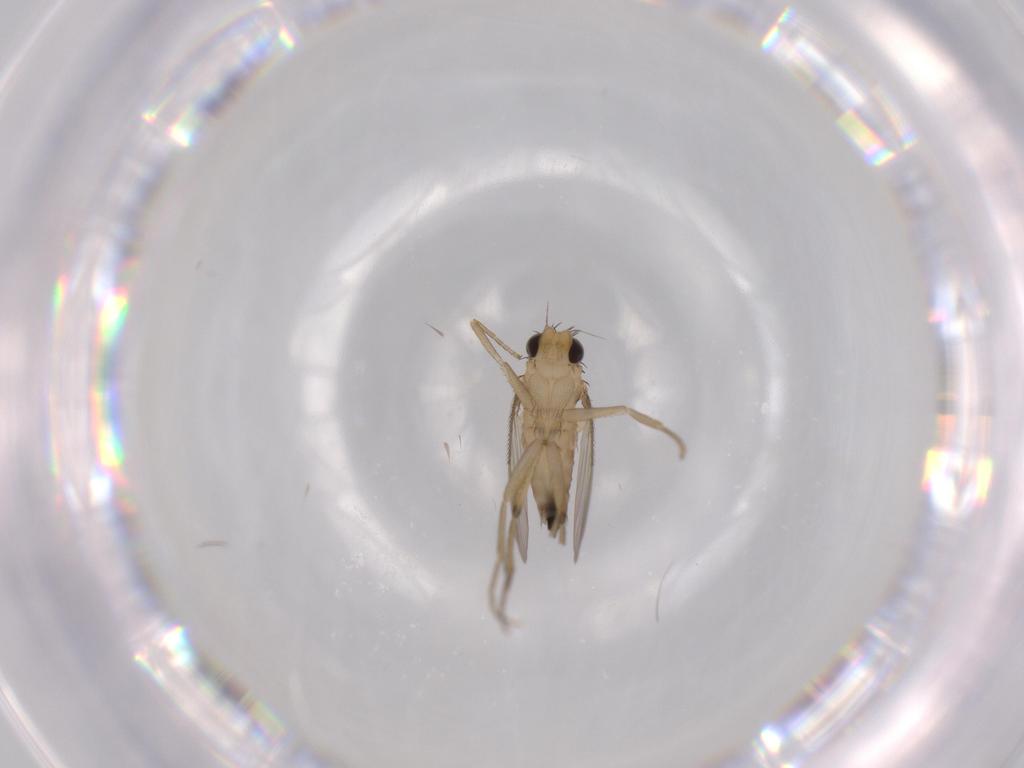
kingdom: Animalia
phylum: Arthropoda
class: Insecta
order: Diptera
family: Phoridae
